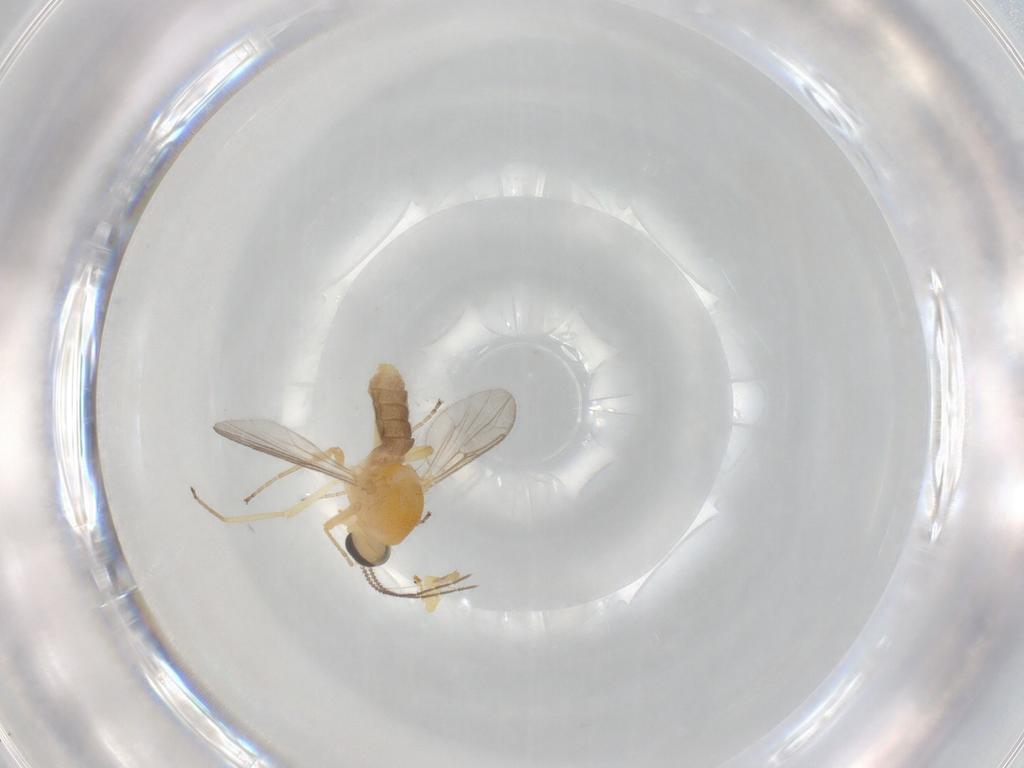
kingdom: Animalia
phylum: Arthropoda
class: Insecta
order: Diptera
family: Ceratopogonidae
